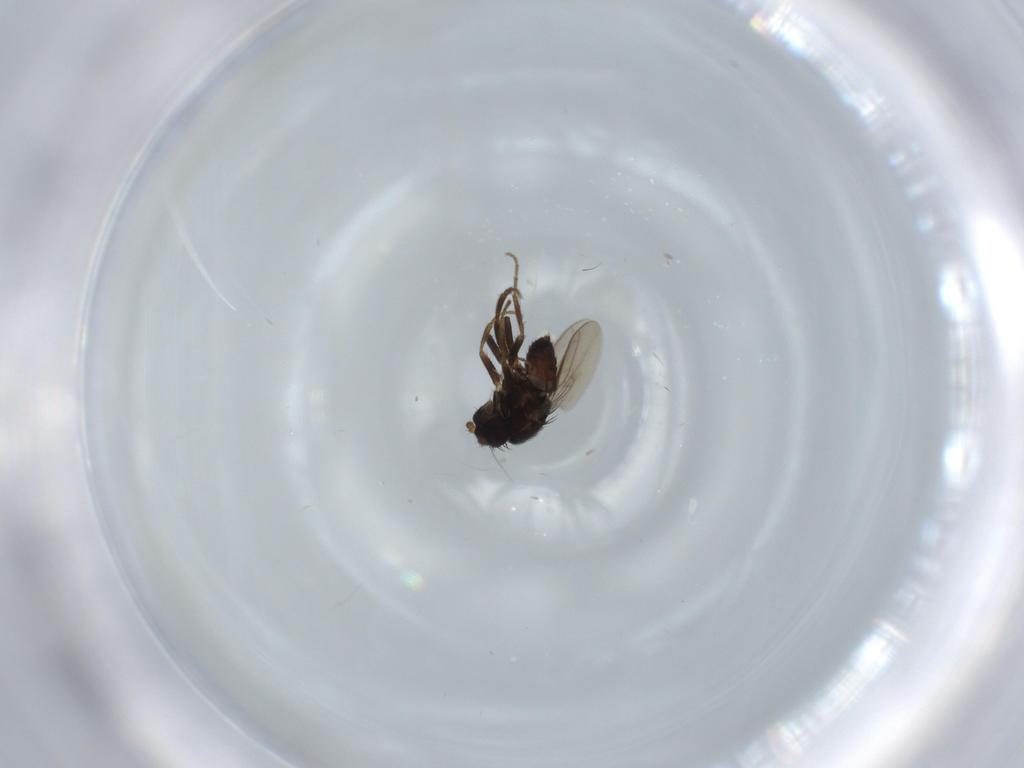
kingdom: Animalia
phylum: Arthropoda
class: Insecta
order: Diptera
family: Sphaeroceridae
